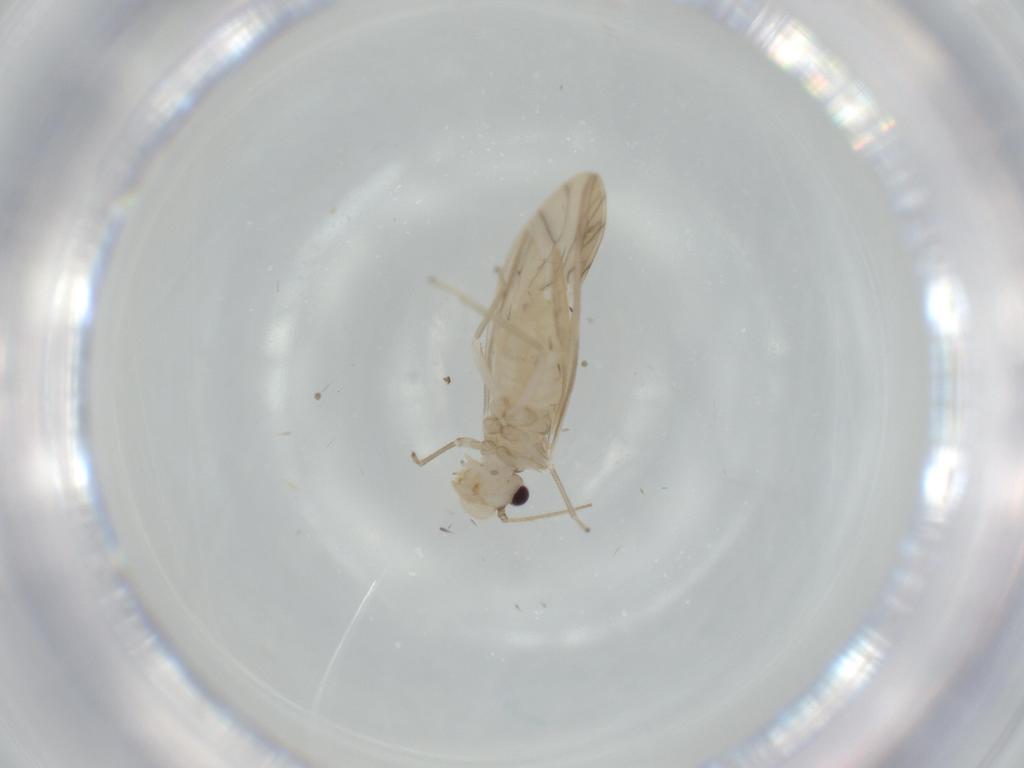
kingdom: Animalia
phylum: Arthropoda
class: Insecta
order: Psocodea
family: Caeciliusidae
